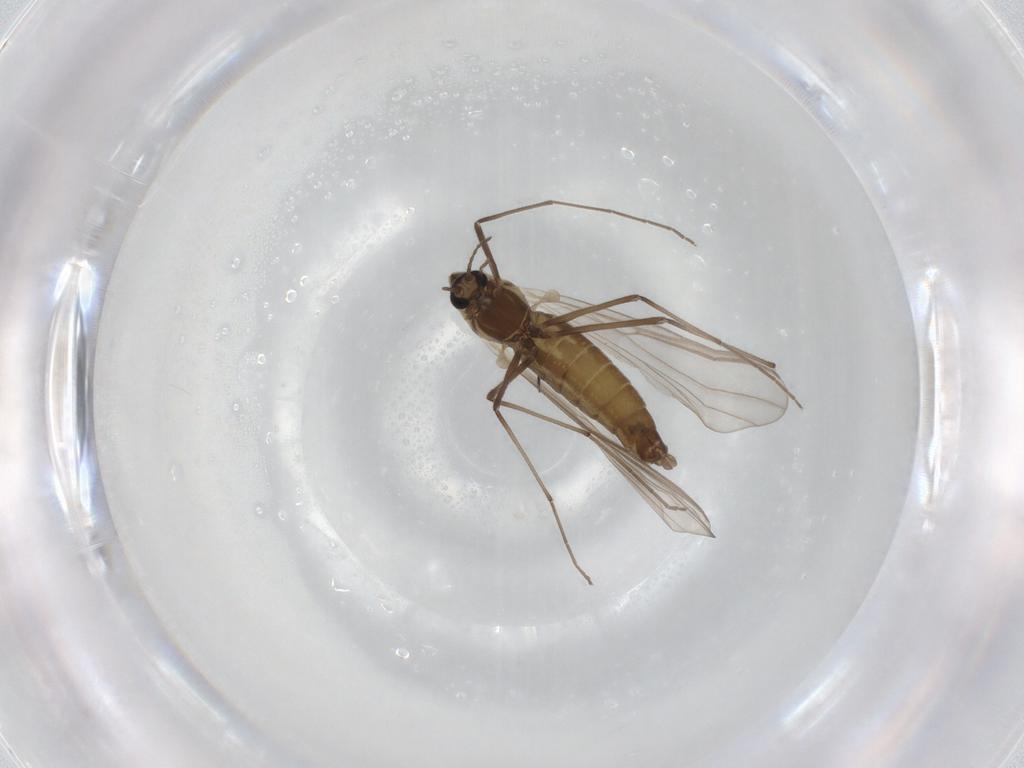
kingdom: Animalia
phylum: Arthropoda
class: Insecta
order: Diptera
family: Chironomidae
